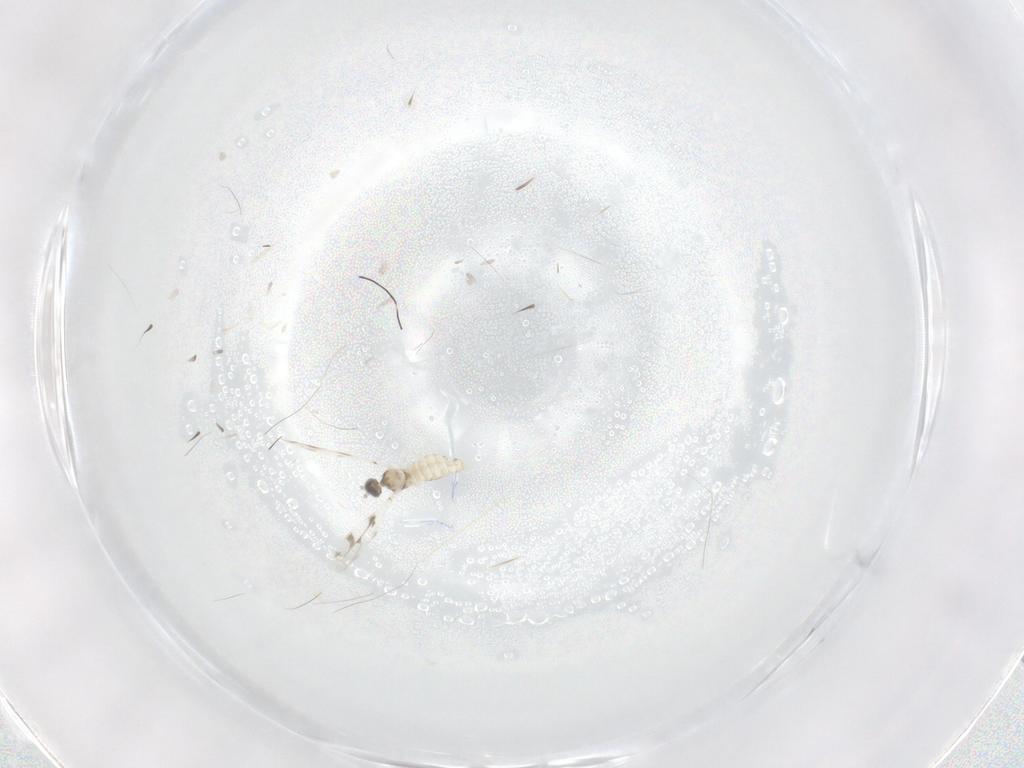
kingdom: Animalia
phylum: Arthropoda
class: Insecta
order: Diptera
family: Cecidomyiidae
